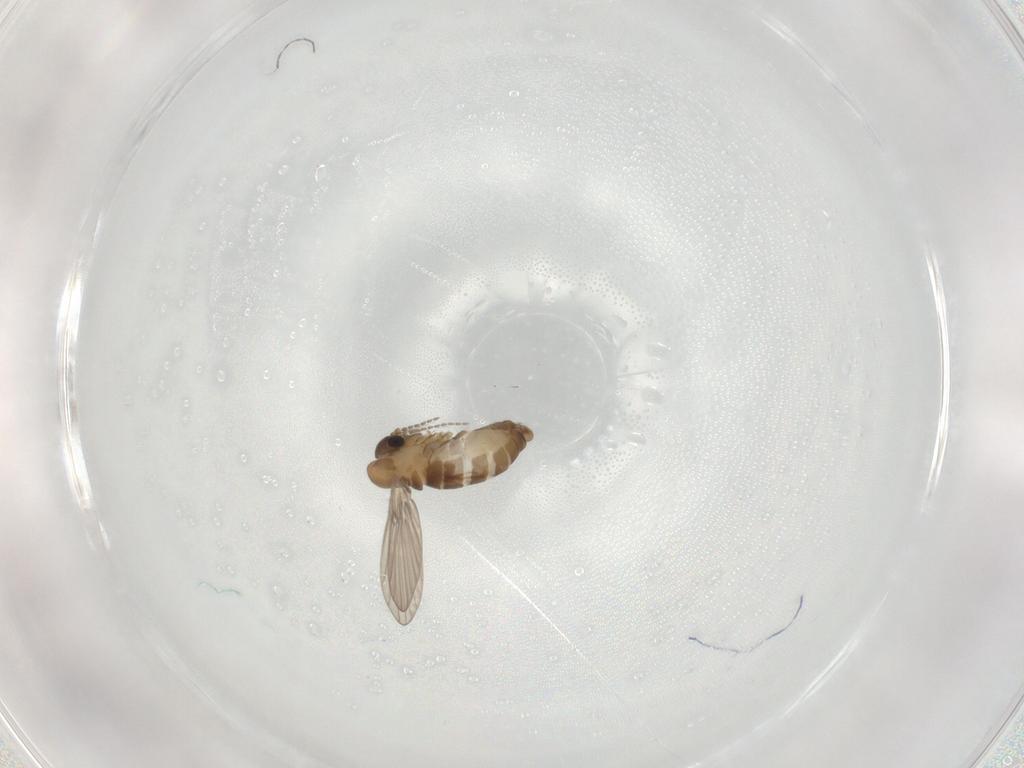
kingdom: Animalia
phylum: Arthropoda
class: Insecta
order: Diptera
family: Psychodidae
